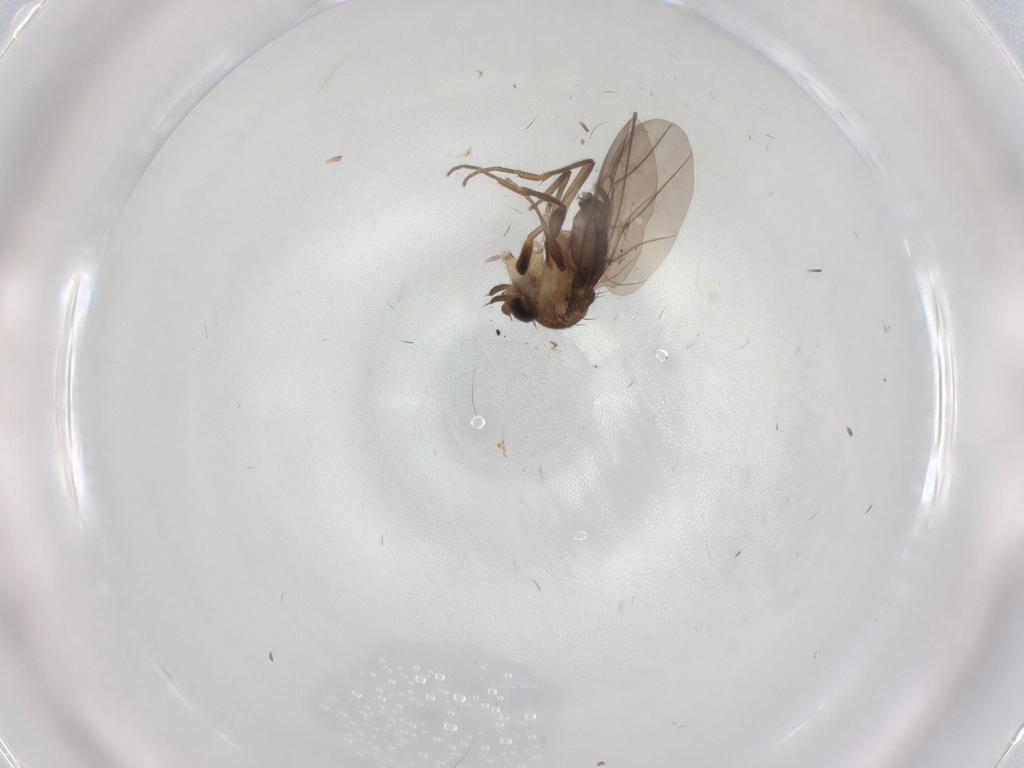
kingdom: Animalia
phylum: Arthropoda
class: Insecta
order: Diptera
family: Phoridae
